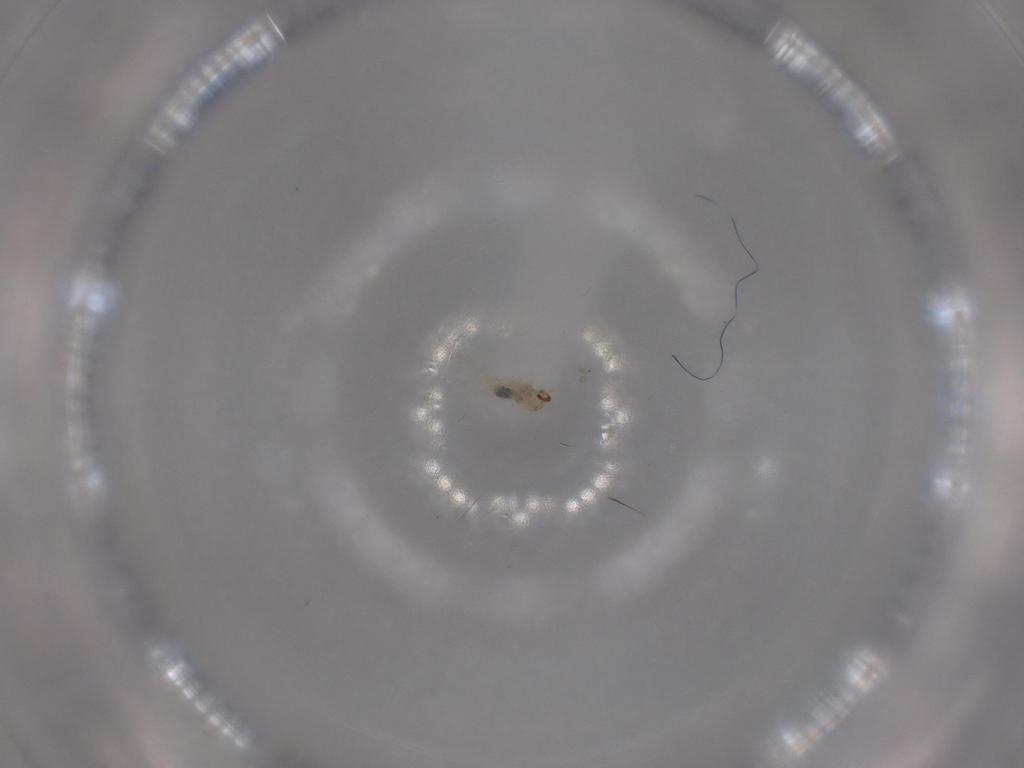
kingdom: Animalia
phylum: Arthropoda
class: Insecta
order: Diptera
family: Cecidomyiidae
